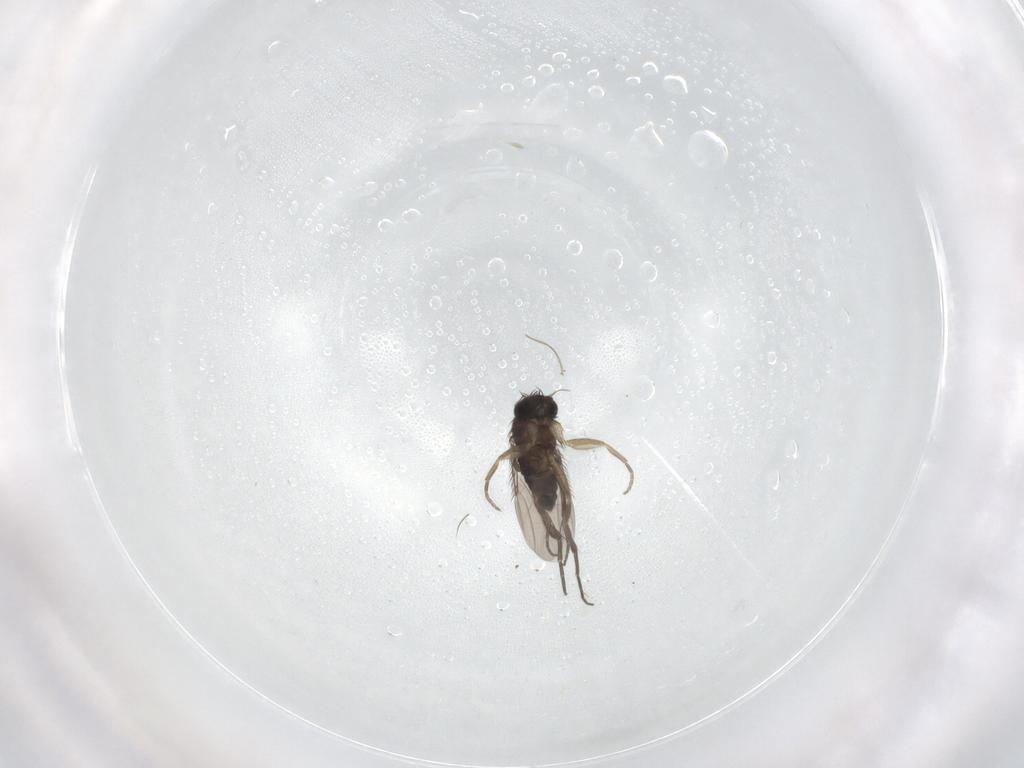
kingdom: Animalia
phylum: Arthropoda
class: Insecta
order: Diptera
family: Phoridae
